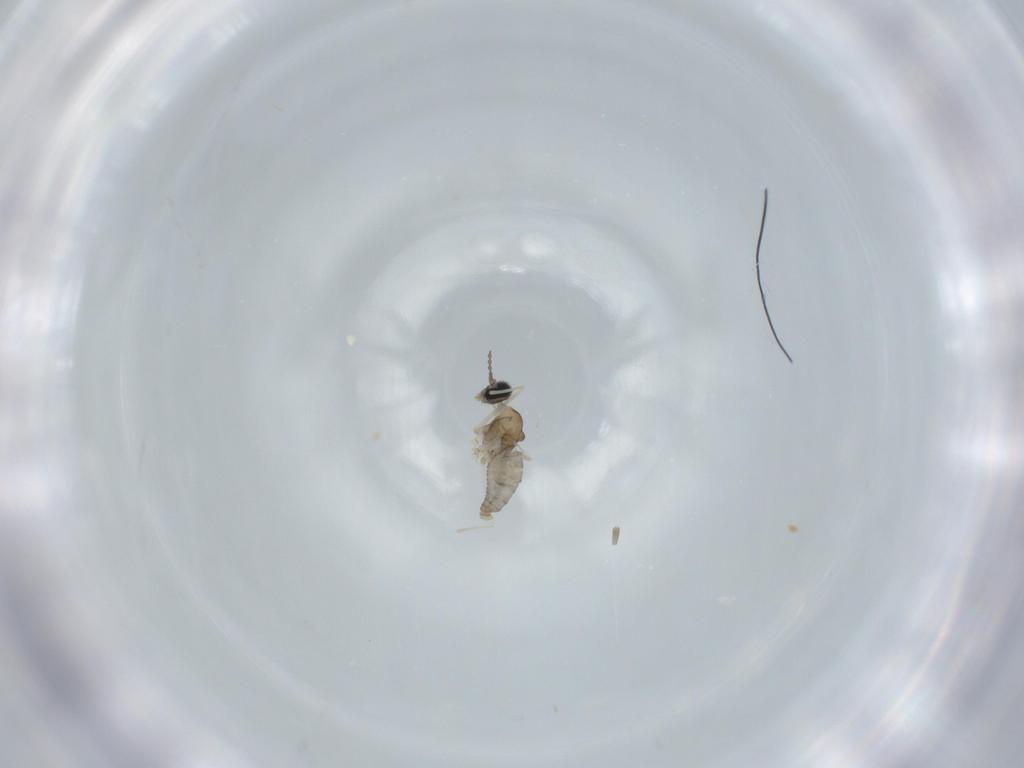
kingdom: Animalia
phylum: Arthropoda
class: Insecta
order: Diptera
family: Cecidomyiidae
